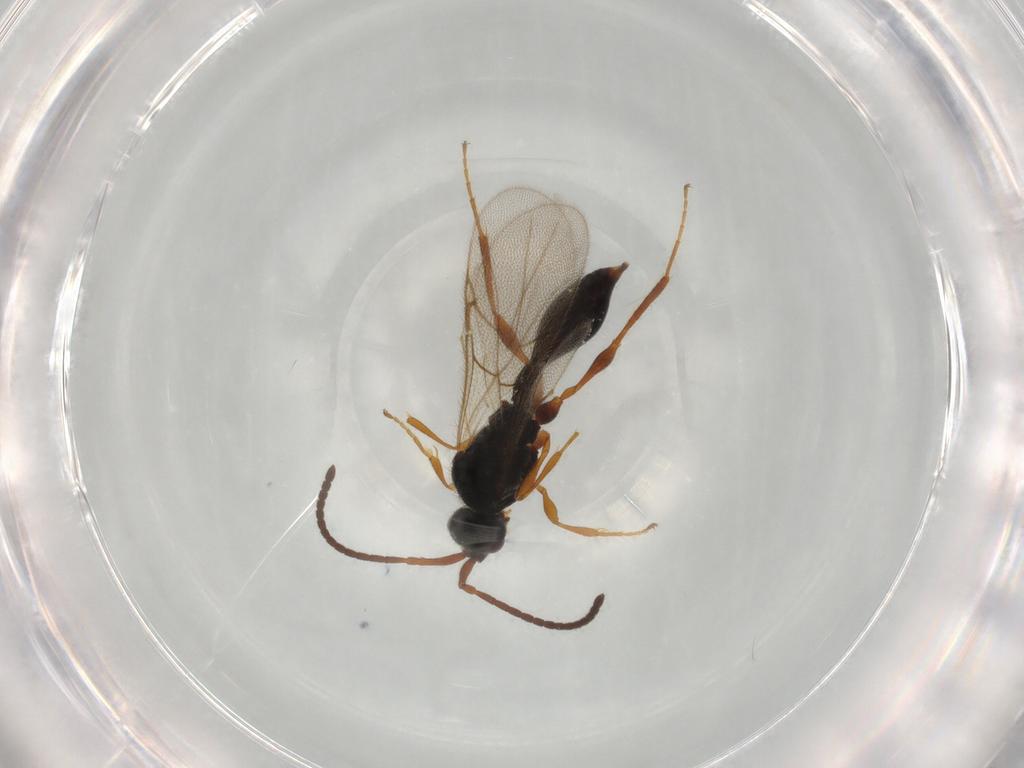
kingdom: Animalia
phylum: Arthropoda
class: Insecta
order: Hymenoptera
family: Ichneumonidae
